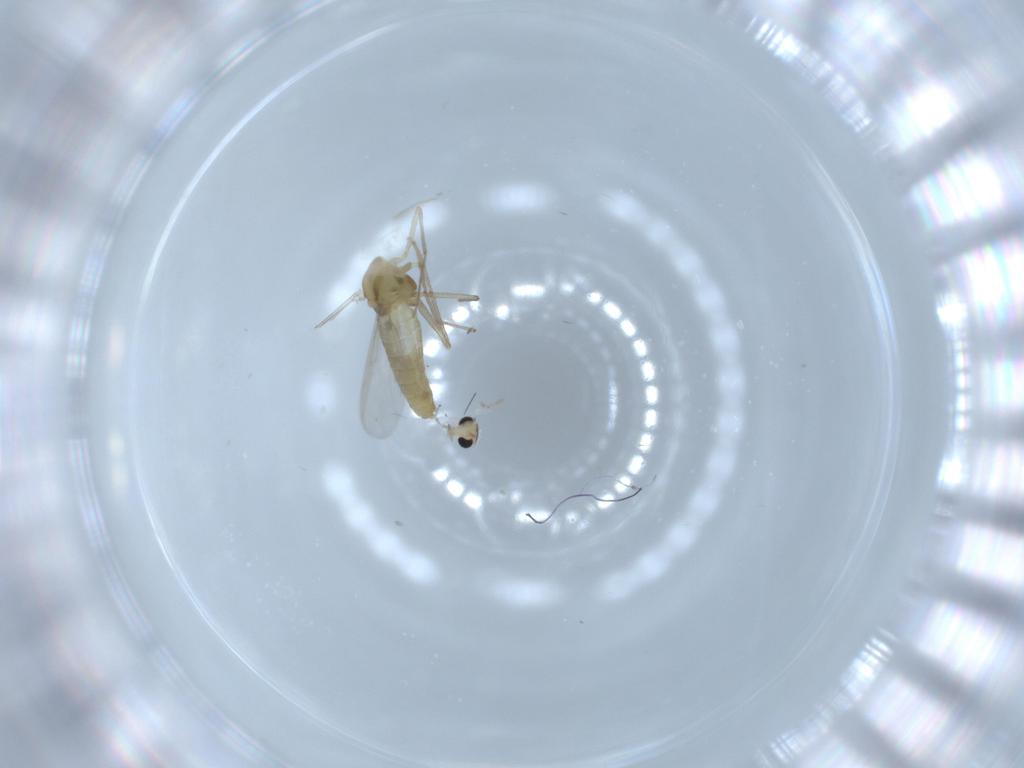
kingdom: Animalia
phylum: Arthropoda
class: Insecta
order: Diptera
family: Chironomidae
